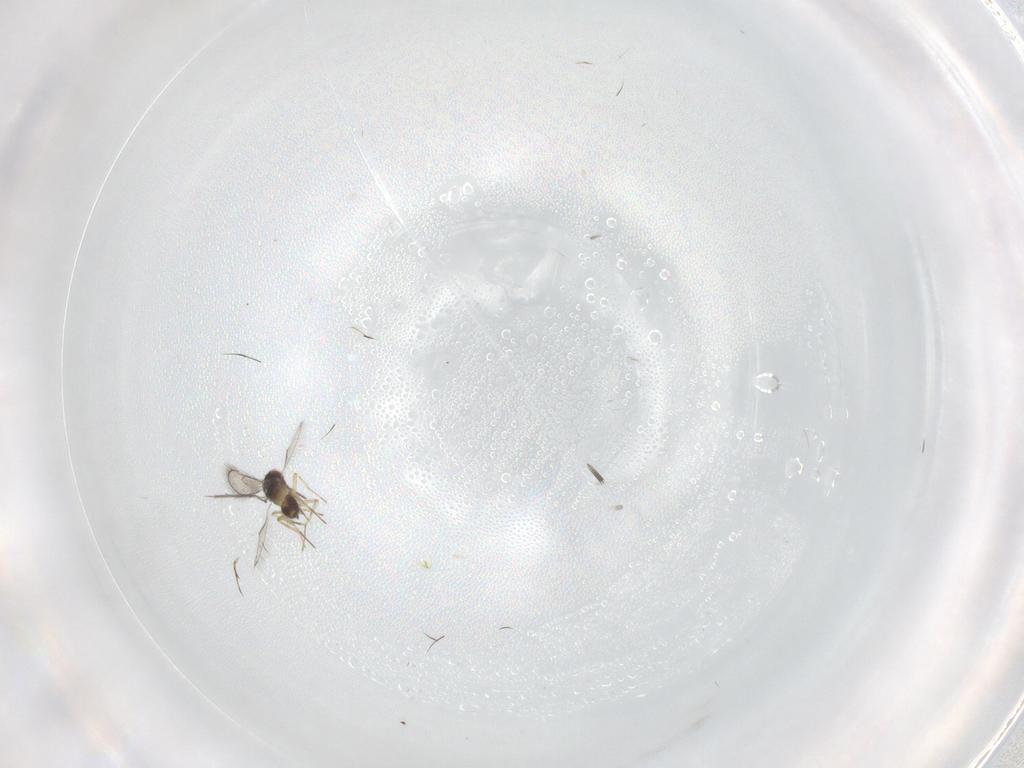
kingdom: Animalia
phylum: Arthropoda
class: Insecta
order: Hymenoptera
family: Eulophidae
